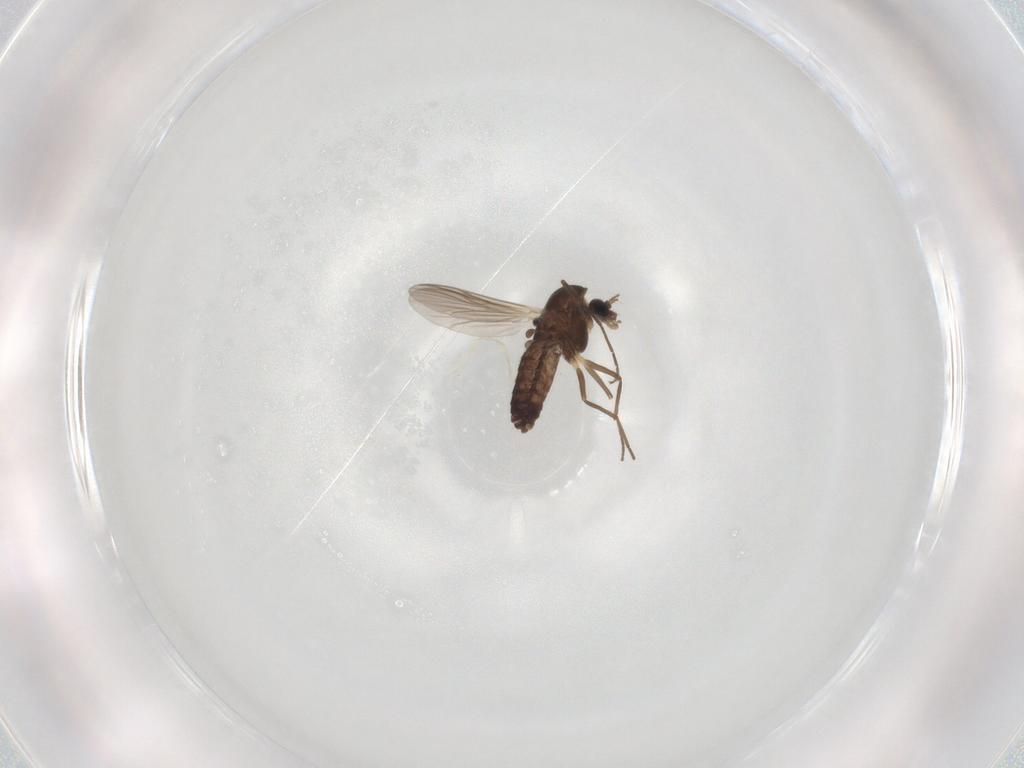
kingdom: Animalia
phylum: Arthropoda
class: Insecta
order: Diptera
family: Chironomidae
